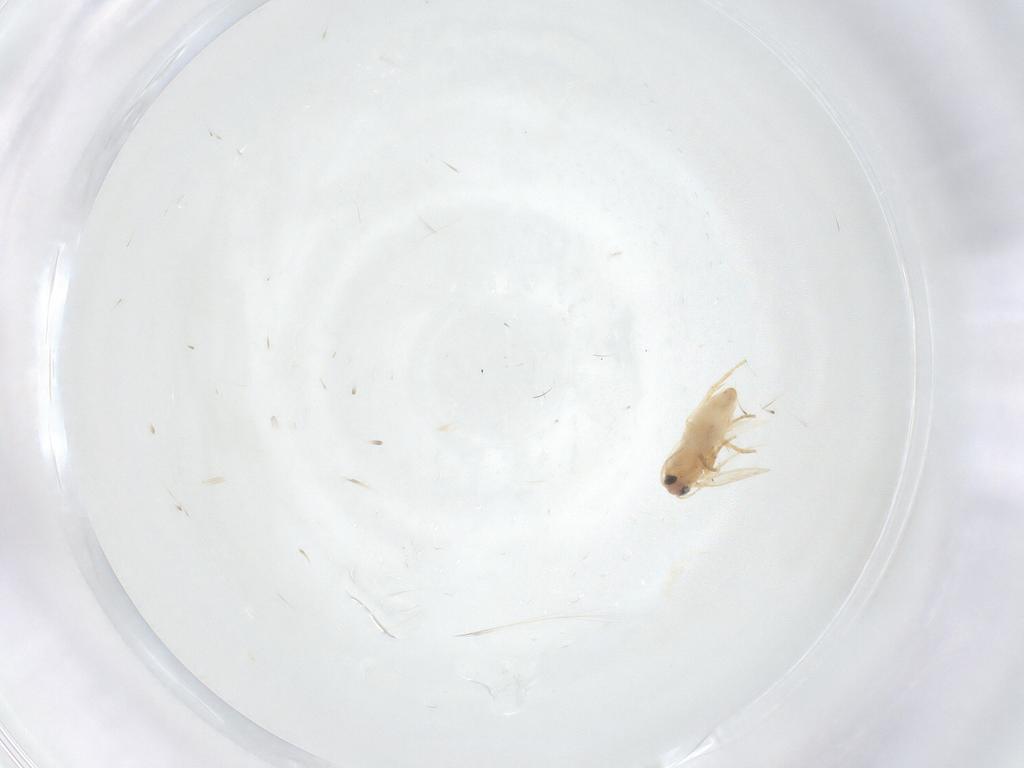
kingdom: Animalia
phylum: Arthropoda
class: Insecta
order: Lepidoptera
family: Crambidae
